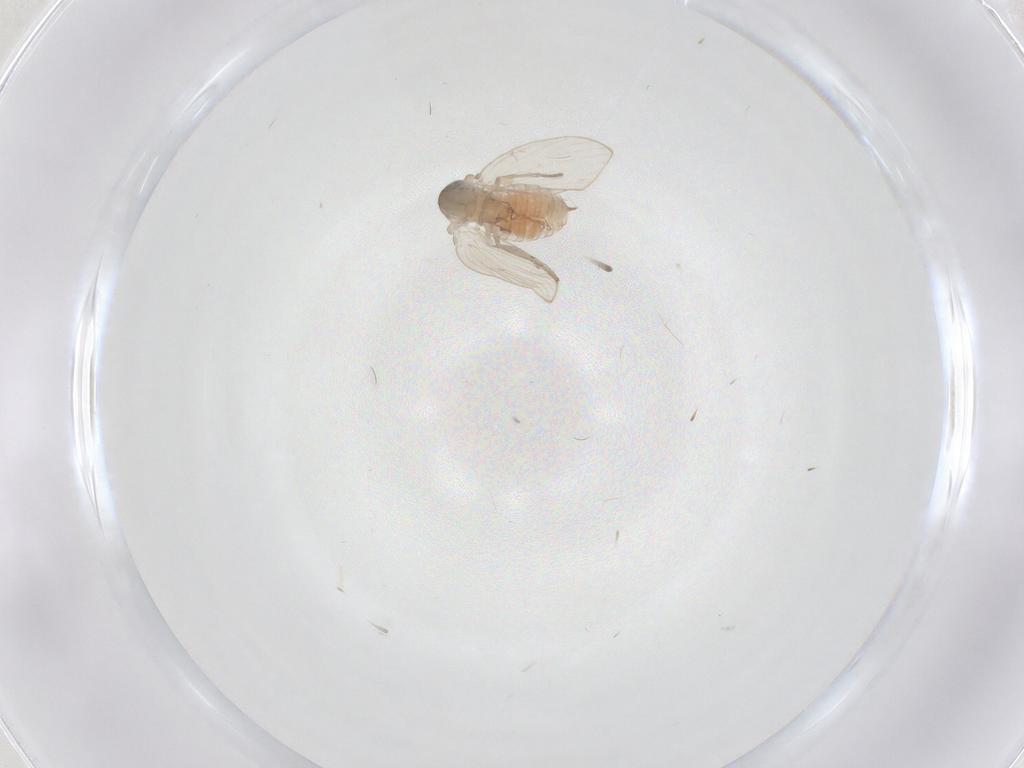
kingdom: Animalia
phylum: Arthropoda
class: Insecta
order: Diptera
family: Psychodidae
